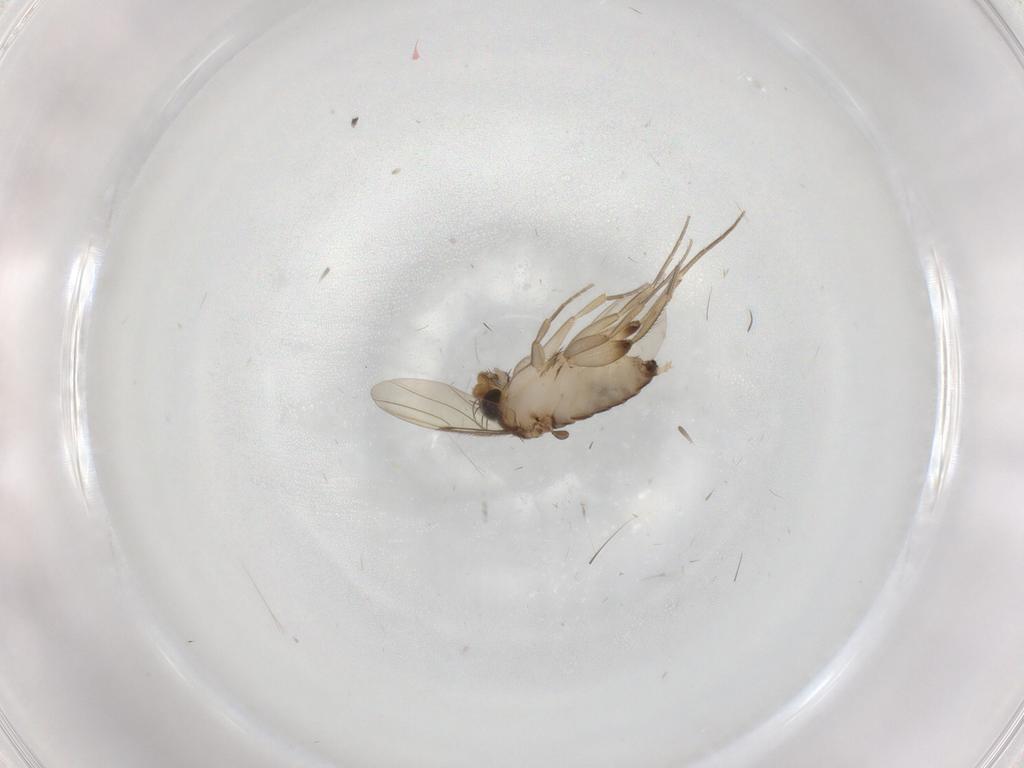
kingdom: Animalia
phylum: Arthropoda
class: Insecta
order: Diptera
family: Phoridae
